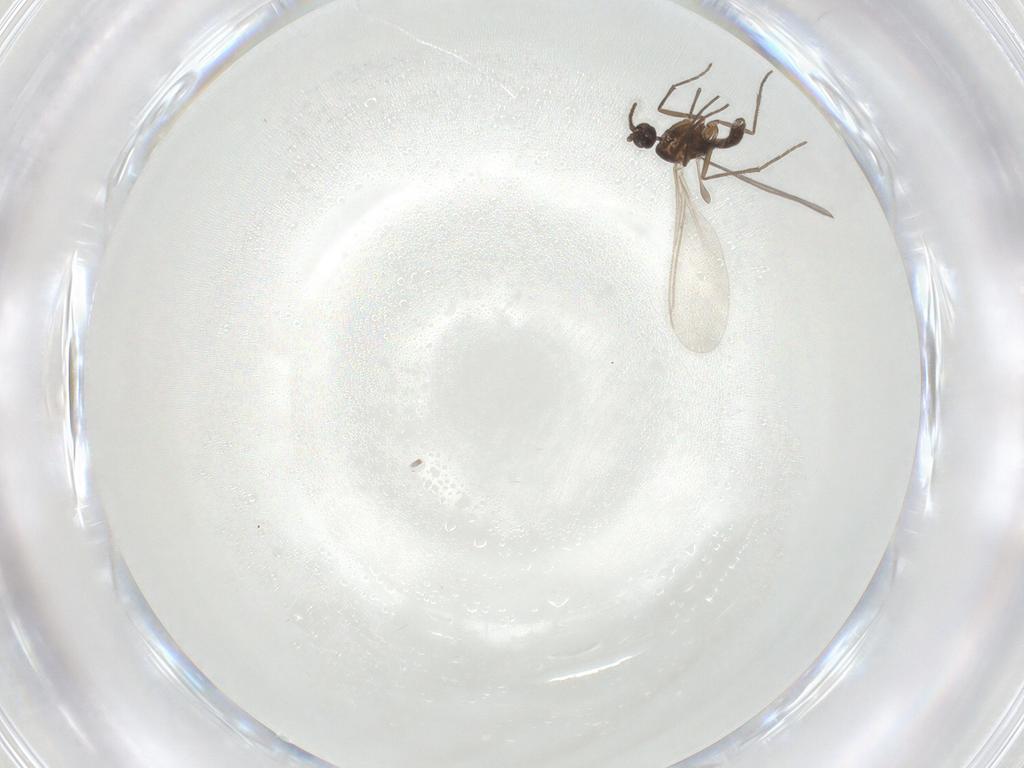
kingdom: Animalia
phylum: Arthropoda
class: Insecta
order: Diptera
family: Sciaridae
